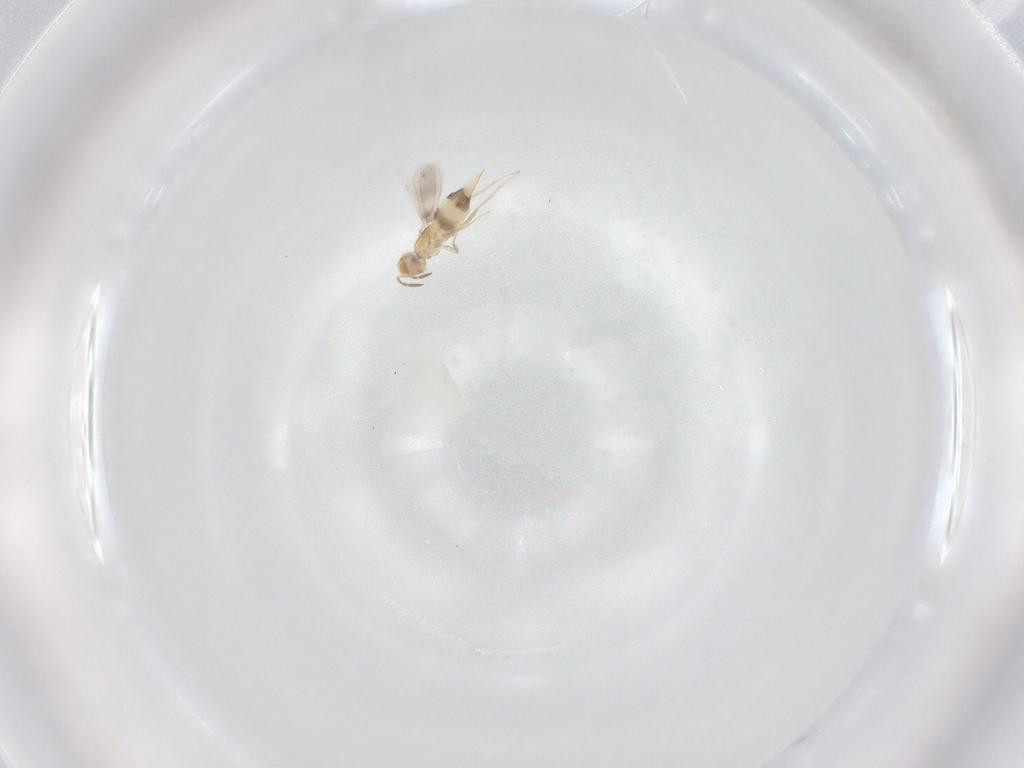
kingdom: Animalia
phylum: Arthropoda
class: Insecta
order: Hymenoptera
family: Aphelinidae
